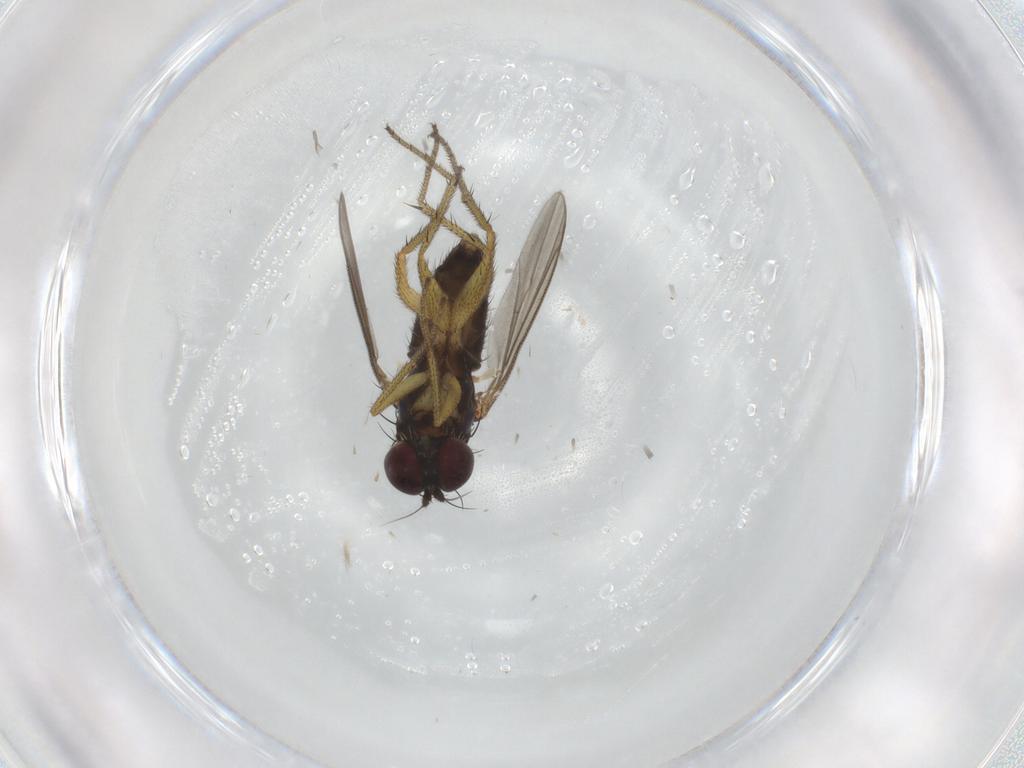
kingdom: Animalia
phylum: Arthropoda
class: Insecta
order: Diptera
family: Dolichopodidae
